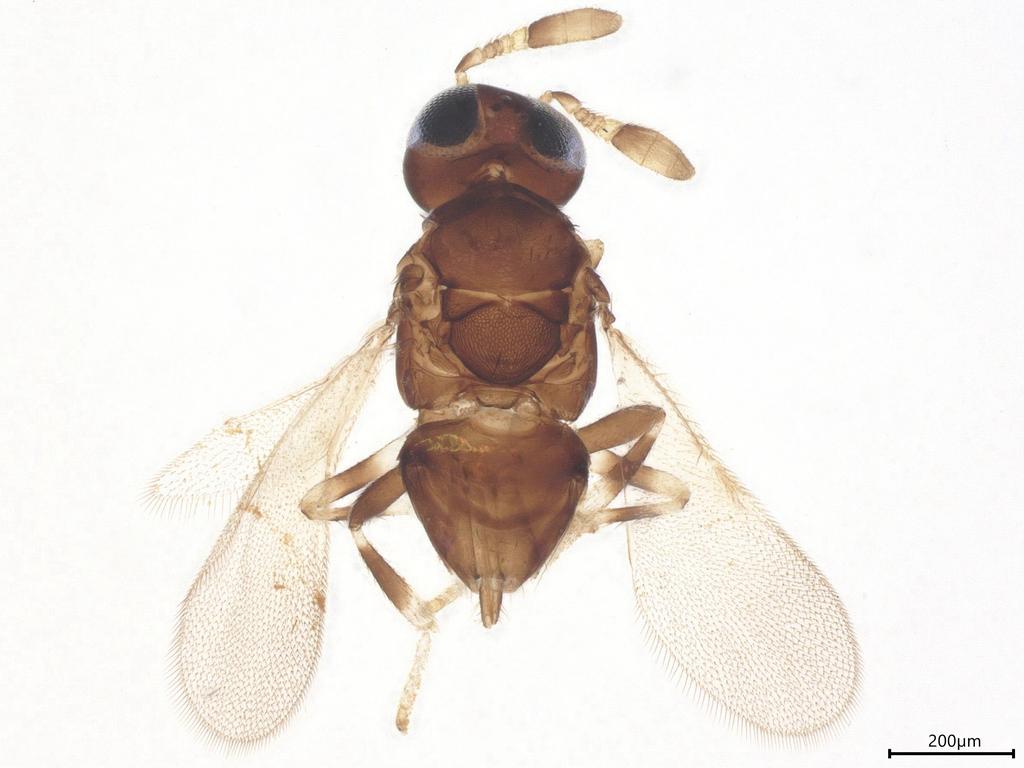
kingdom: Animalia
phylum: Arthropoda
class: Insecta
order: Hymenoptera
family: Encyrtidae
